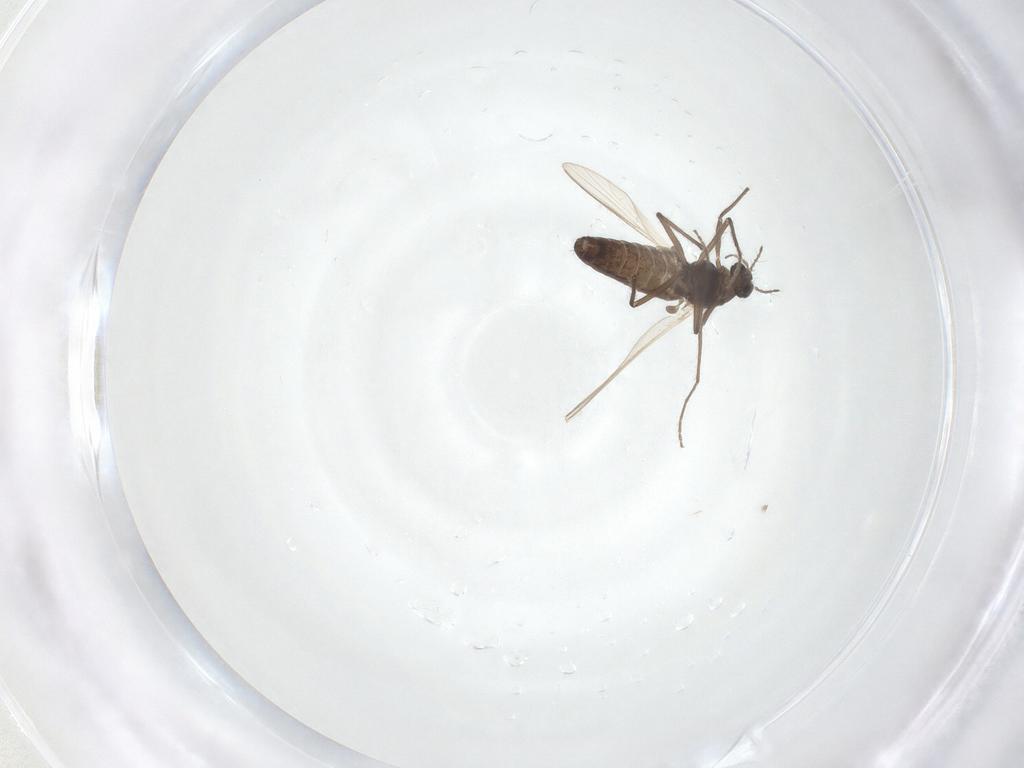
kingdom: Animalia
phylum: Arthropoda
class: Insecta
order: Diptera
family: Chironomidae
